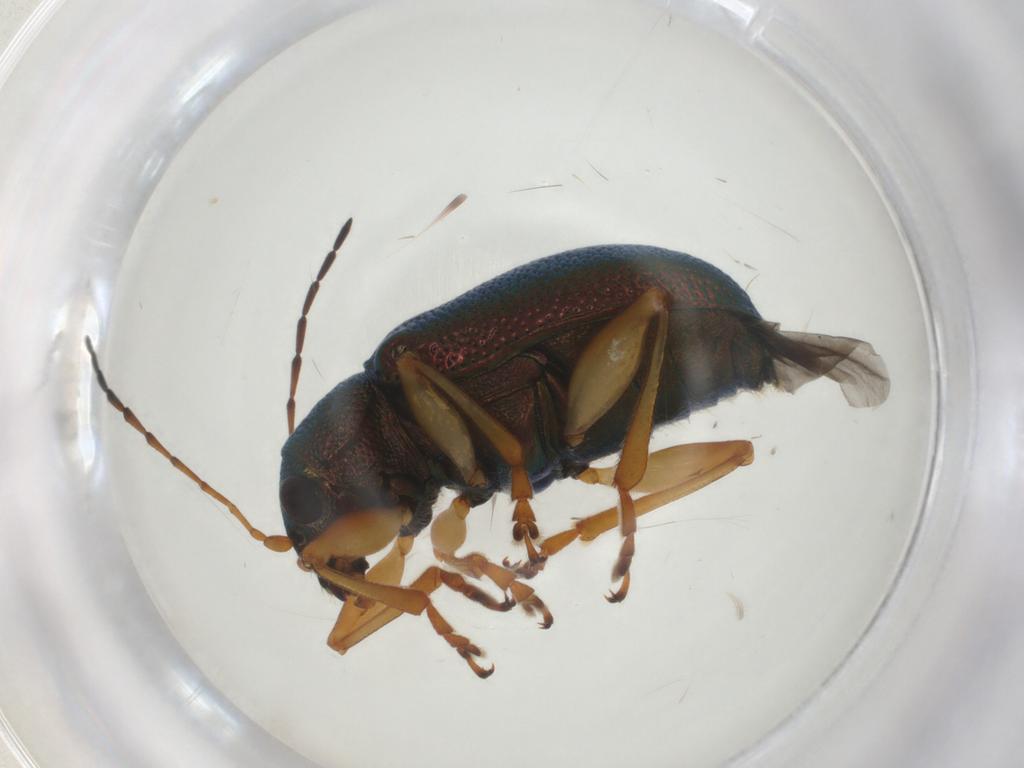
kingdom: Animalia
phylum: Arthropoda
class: Insecta
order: Coleoptera
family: Chrysomelidae
